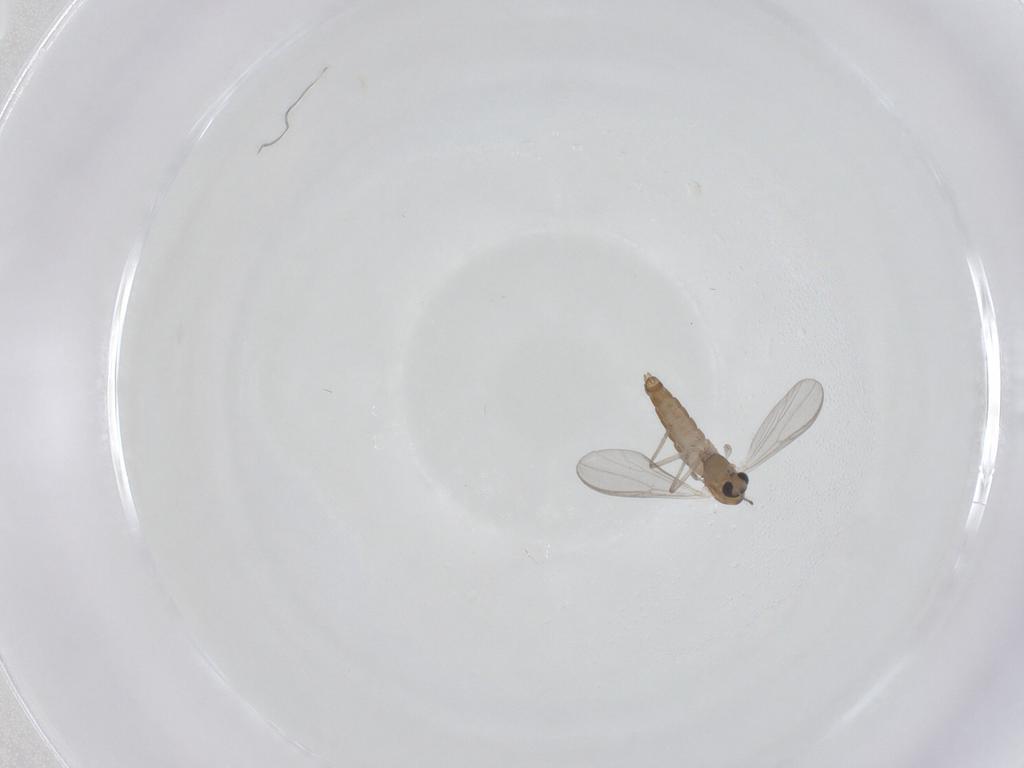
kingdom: Animalia
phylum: Arthropoda
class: Insecta
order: Diptera
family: Chironomidae
